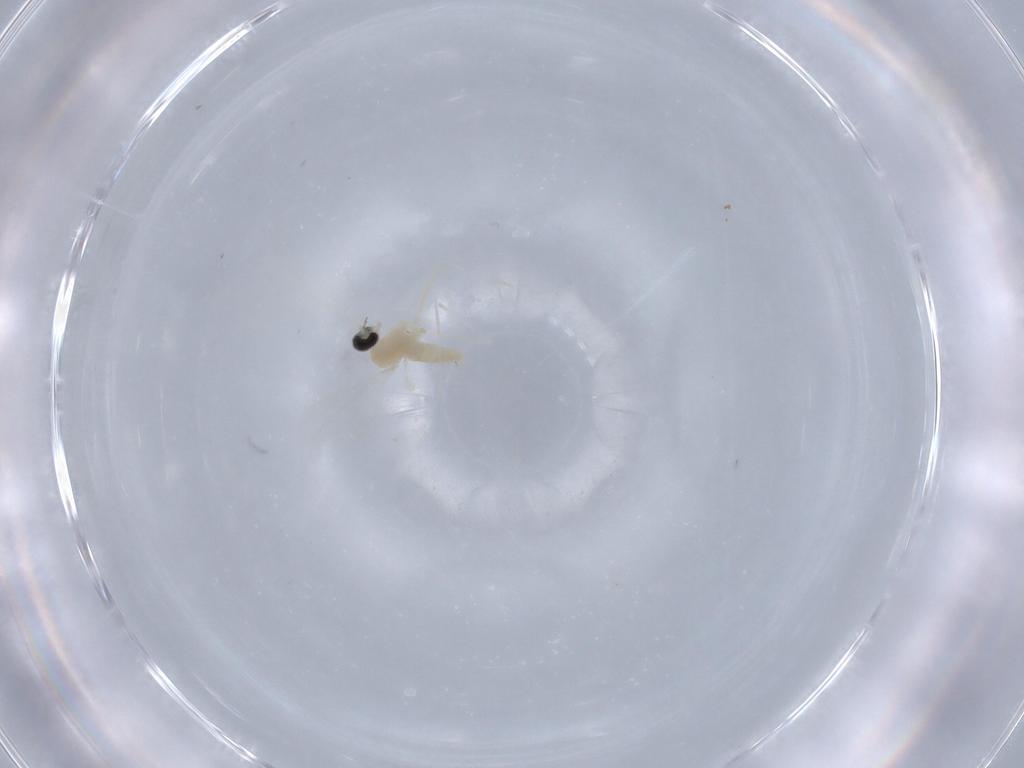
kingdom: Animalia
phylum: Arthropoda
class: Insecta
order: Diptera
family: Cecidomyiidae
